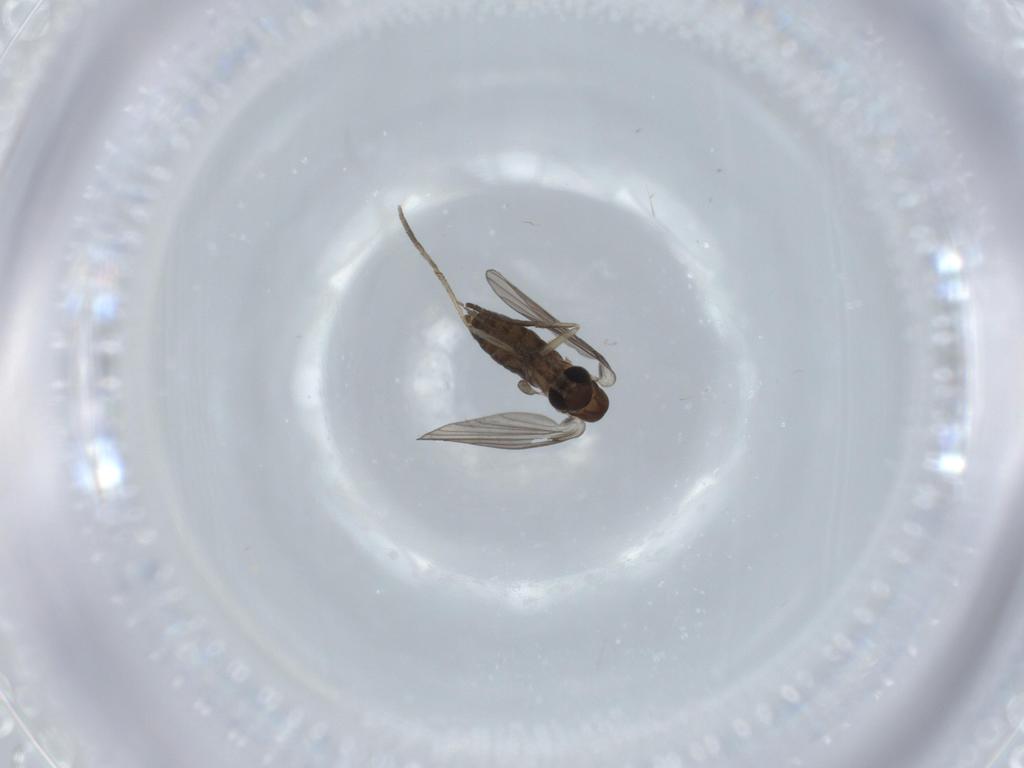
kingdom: Animalia
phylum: Arthropoda
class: Insecta
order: Diptera
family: Psychodidae
